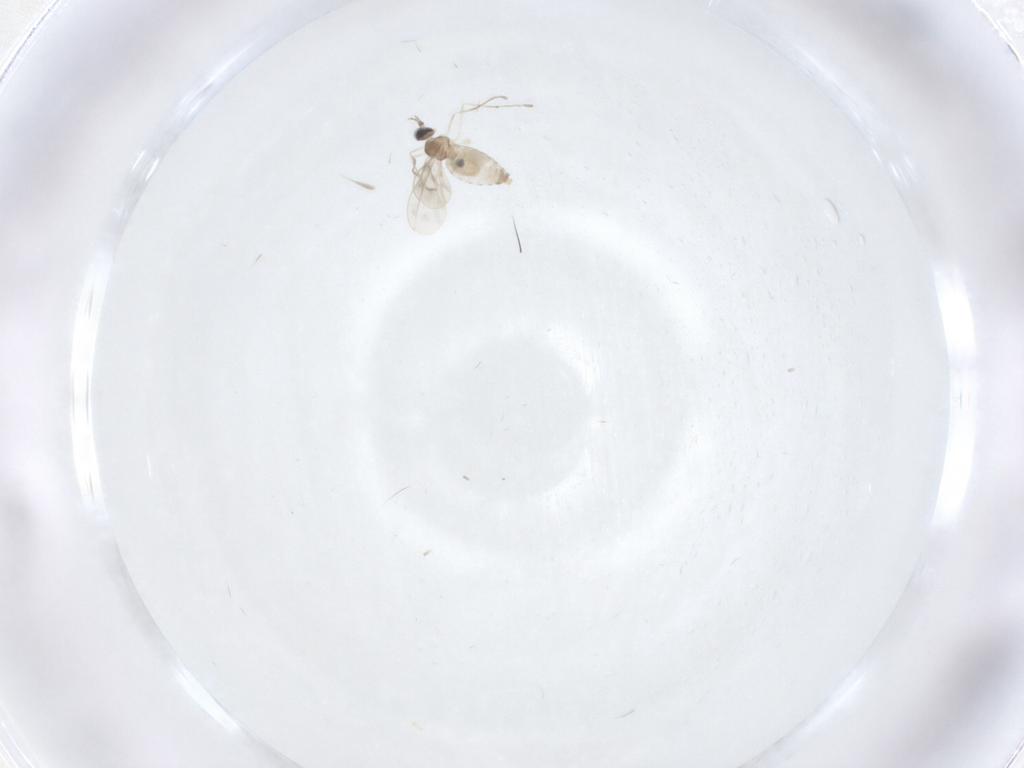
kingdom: Animalia
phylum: Arthropoda
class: Insecta
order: Diptera
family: Cecidomyiidae
